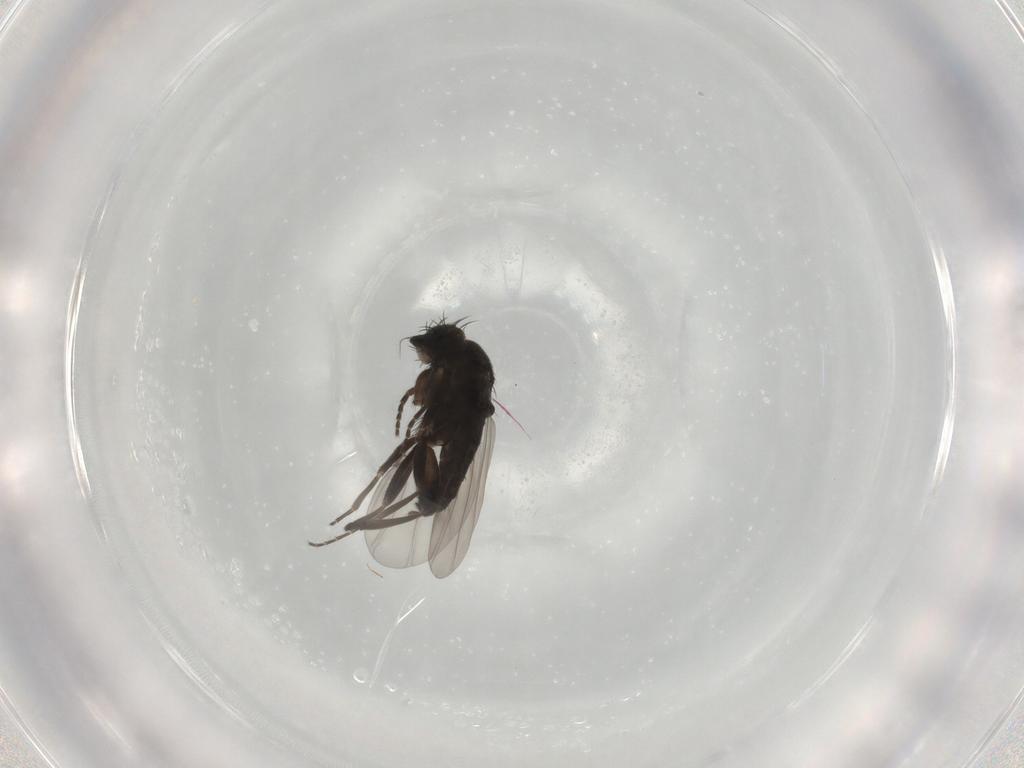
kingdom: Animalia
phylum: Arthropoda
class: Insecta
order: Diptera
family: Phoridae
